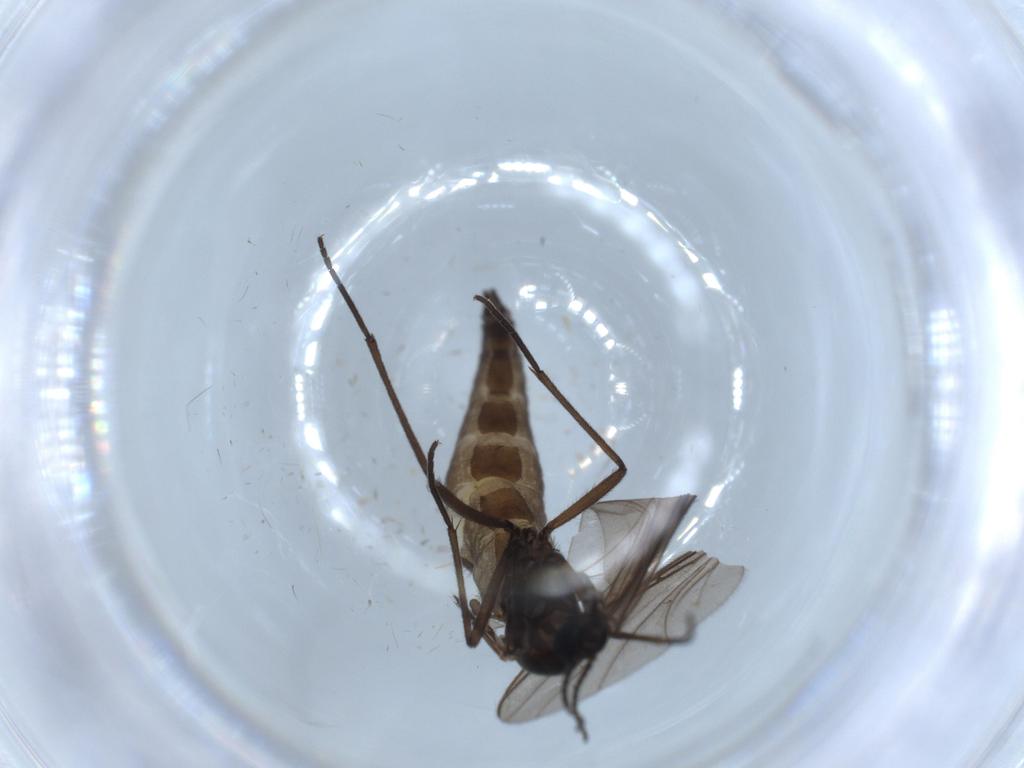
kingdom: Animalia
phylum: Arthropoda
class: Insecta
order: Diptera
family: Sciaridae
